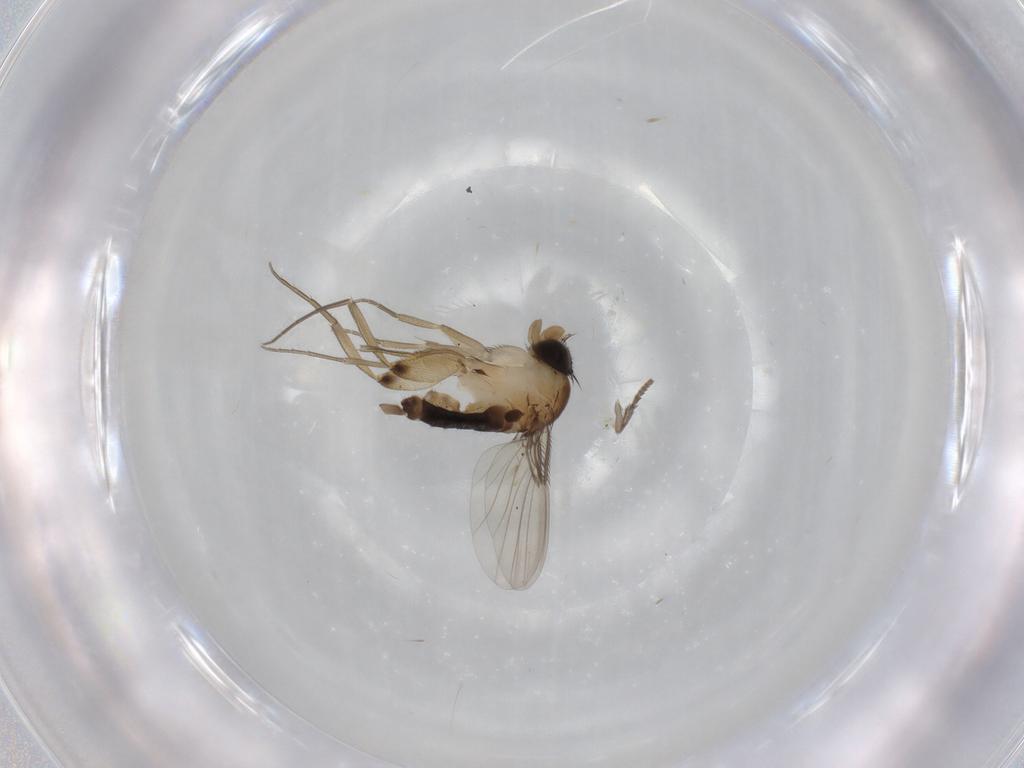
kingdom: Animalia
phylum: Arthropoda
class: Insecta
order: Diptera
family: Phoridae
